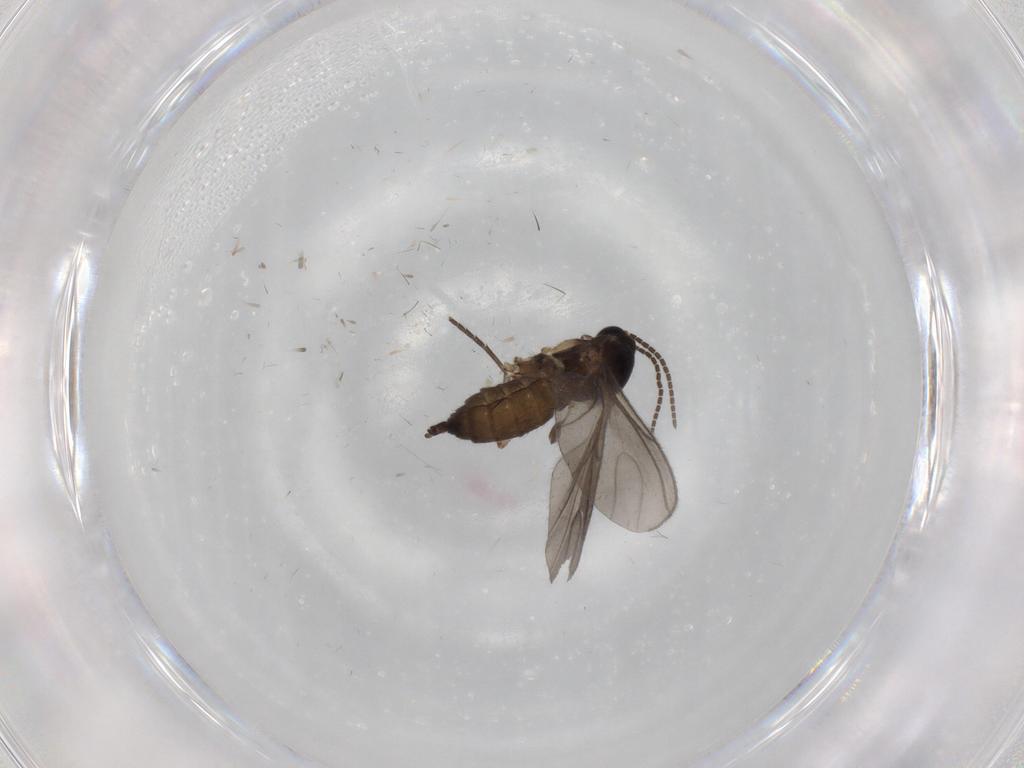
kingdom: Animalia
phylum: Arthropoda
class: Insecta
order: Diptera
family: Sciaridae
